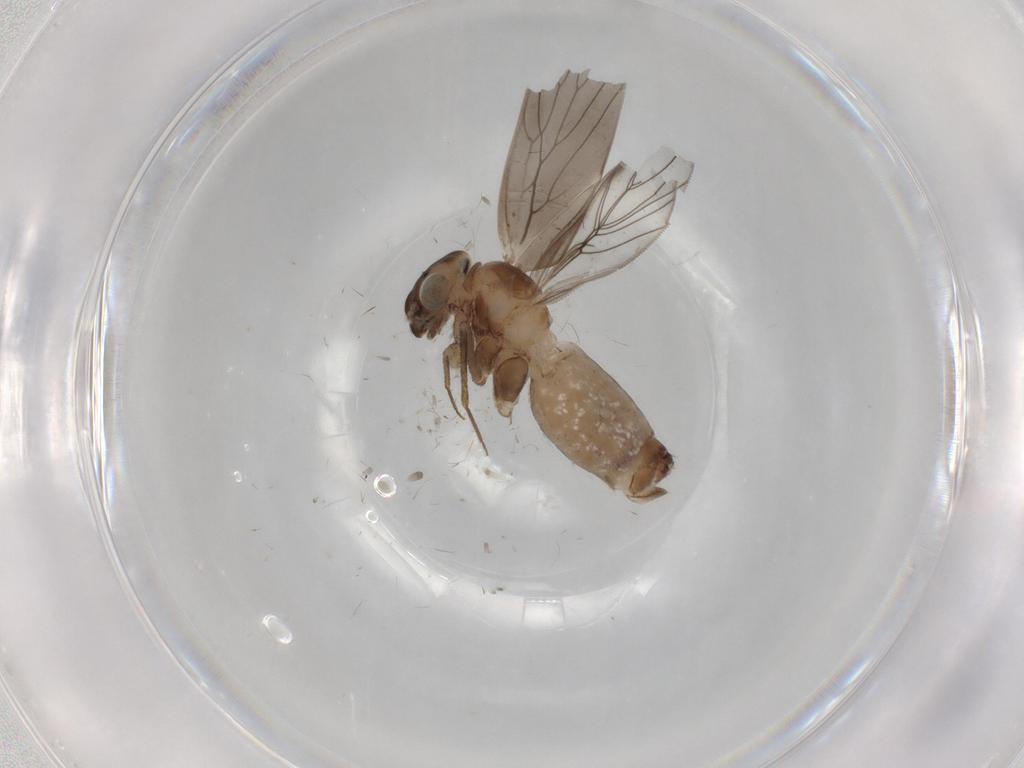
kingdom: Animalia
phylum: Arthropoda
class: Insecta
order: Psocodea
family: Lepidopsocidae
